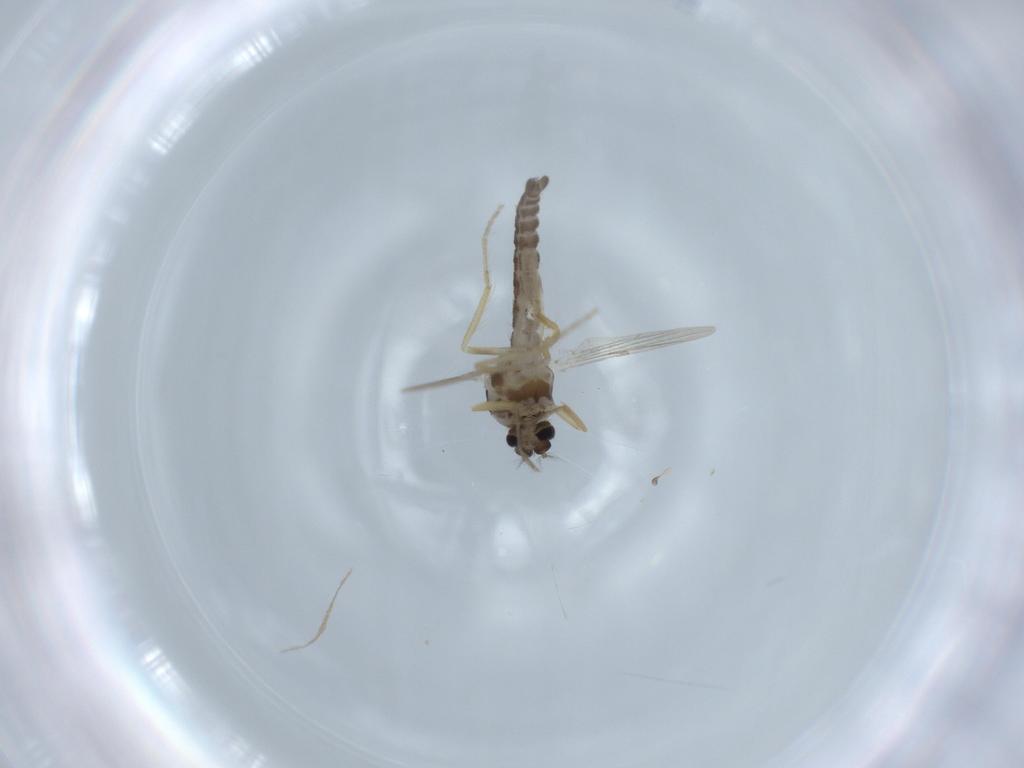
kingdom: Animalia
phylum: Arthropoda
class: Insecta
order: Diptera
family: Ceratopogonidae
